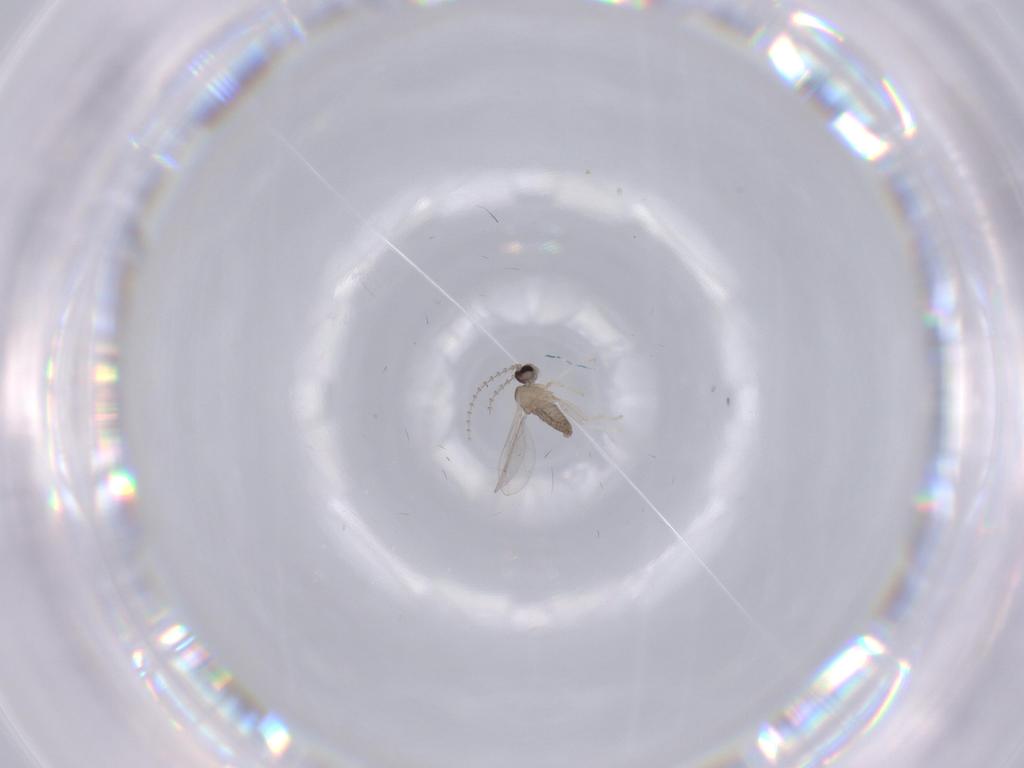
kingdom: Animalia
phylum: Arthropoda
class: Insecta
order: Diptera
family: Cecidomyiidae
